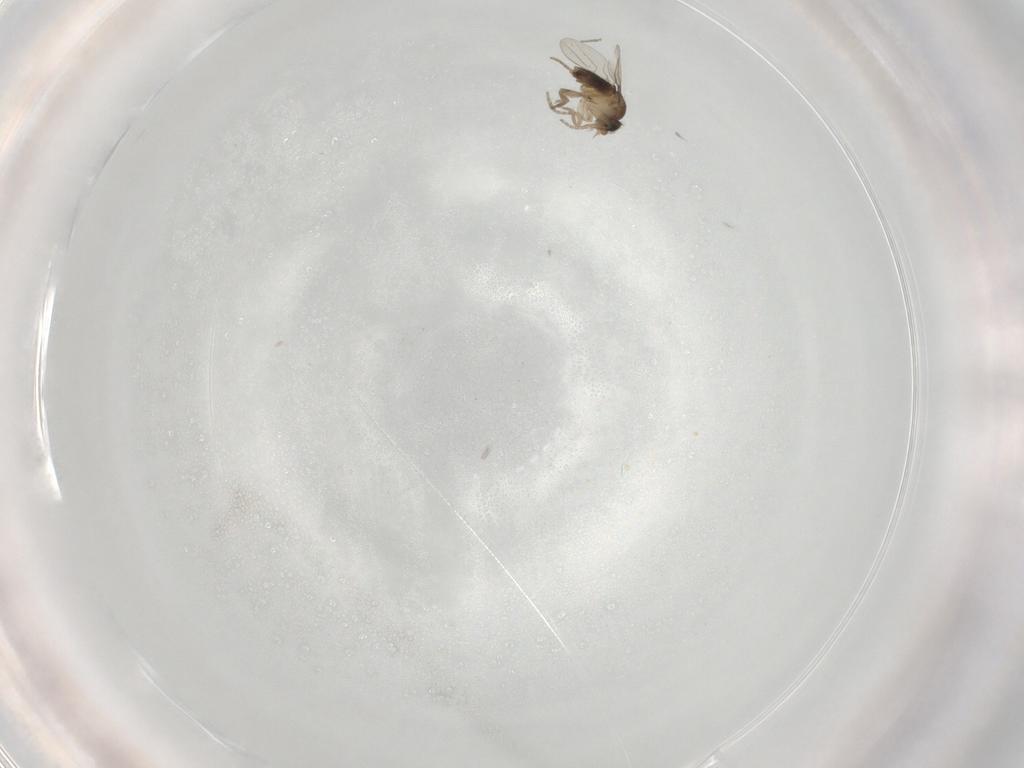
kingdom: Animalia
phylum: Arthropoda
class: Insecta
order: Diptera
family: Phoridae
